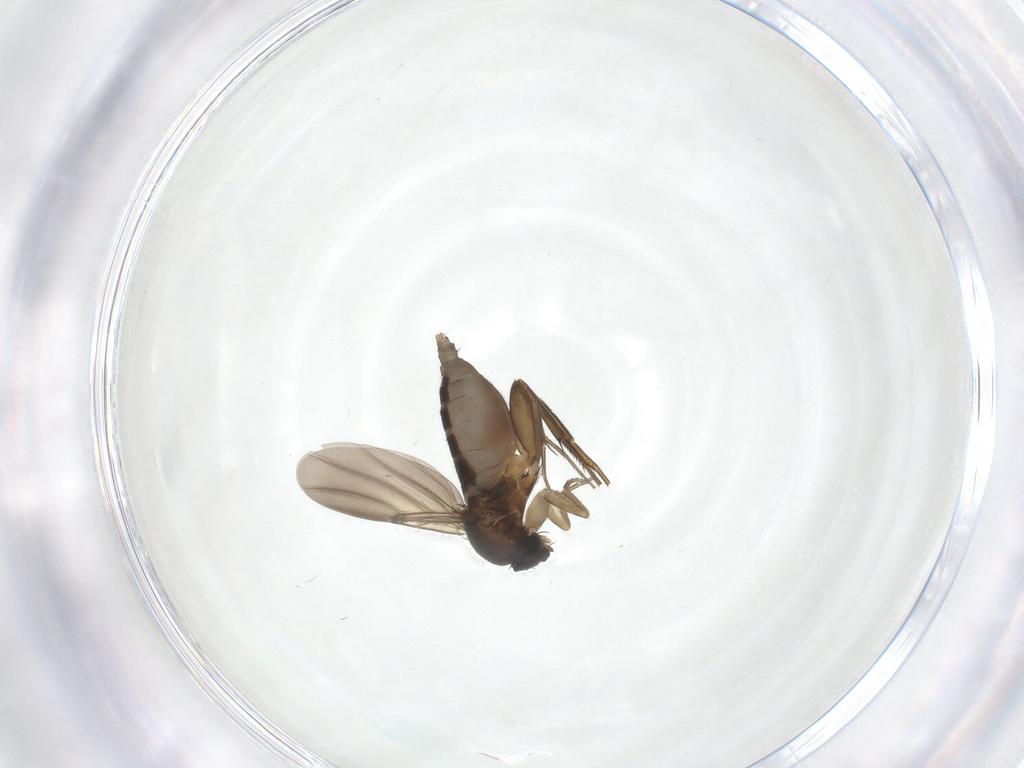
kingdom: Animalia
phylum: Arthropoda
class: Insecta
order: Diptera
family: Phoridae
